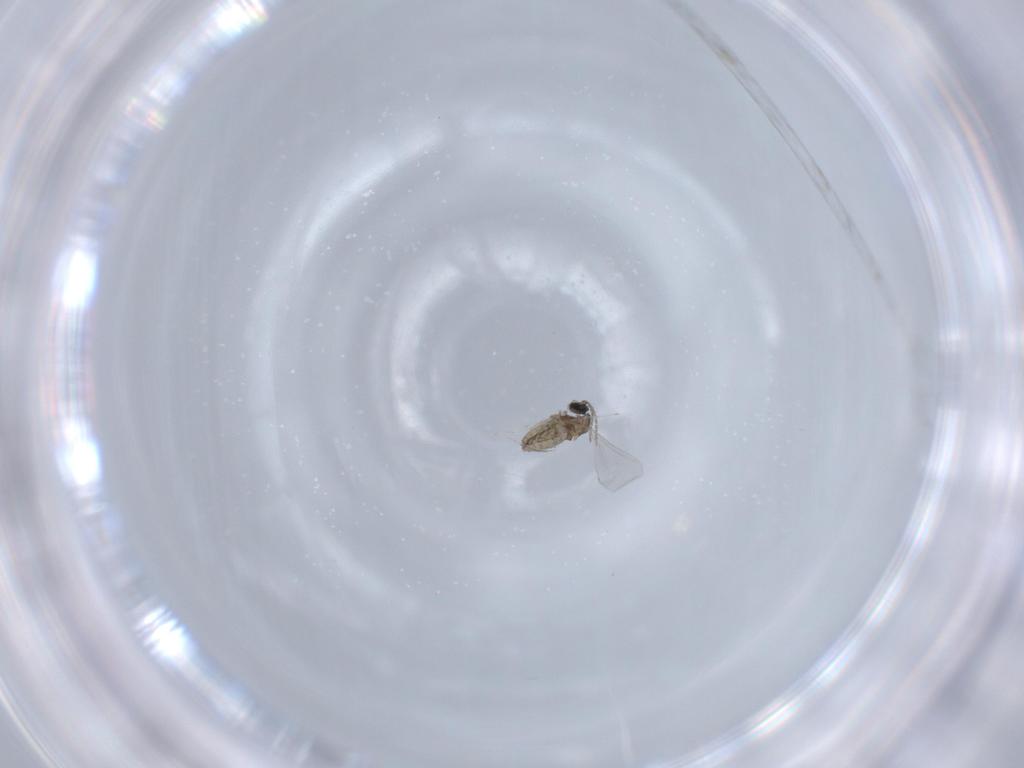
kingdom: Animalia
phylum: Arthropoda
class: Insecta
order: Diptera
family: Cecidomyiidae
